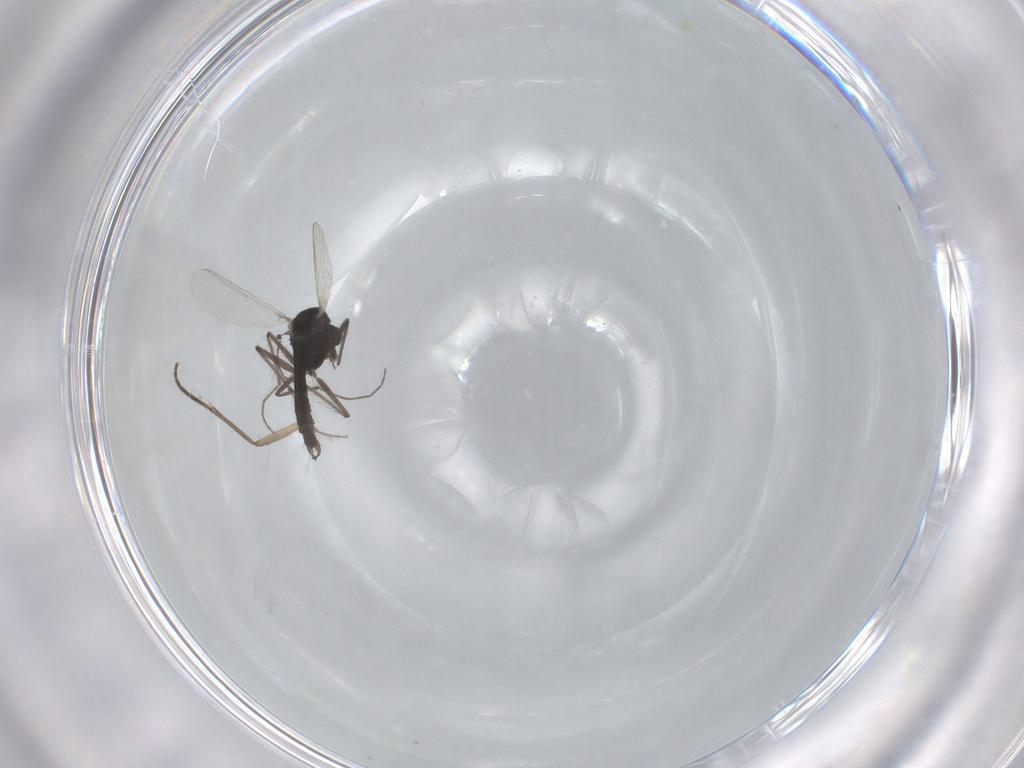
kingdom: Animalia
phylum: Arthropoda
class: Insecta
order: Diptera
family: Sciaridae
